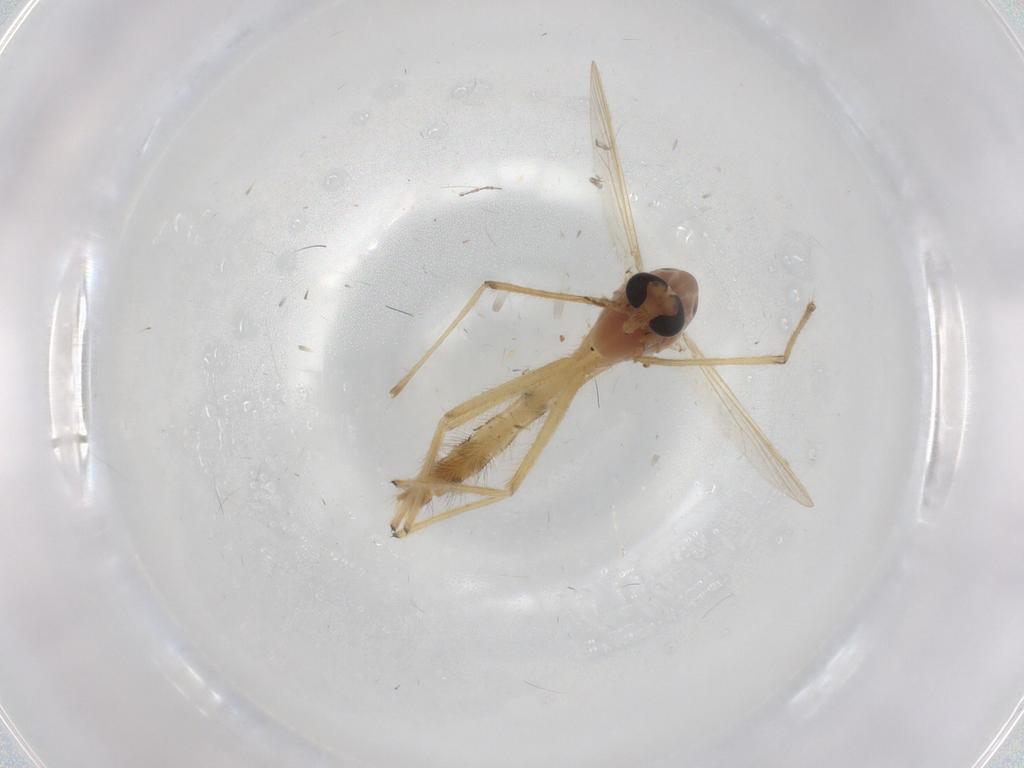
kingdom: Animalia
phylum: Arthropoda
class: Insecta
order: Diptera
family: Chironomidae
